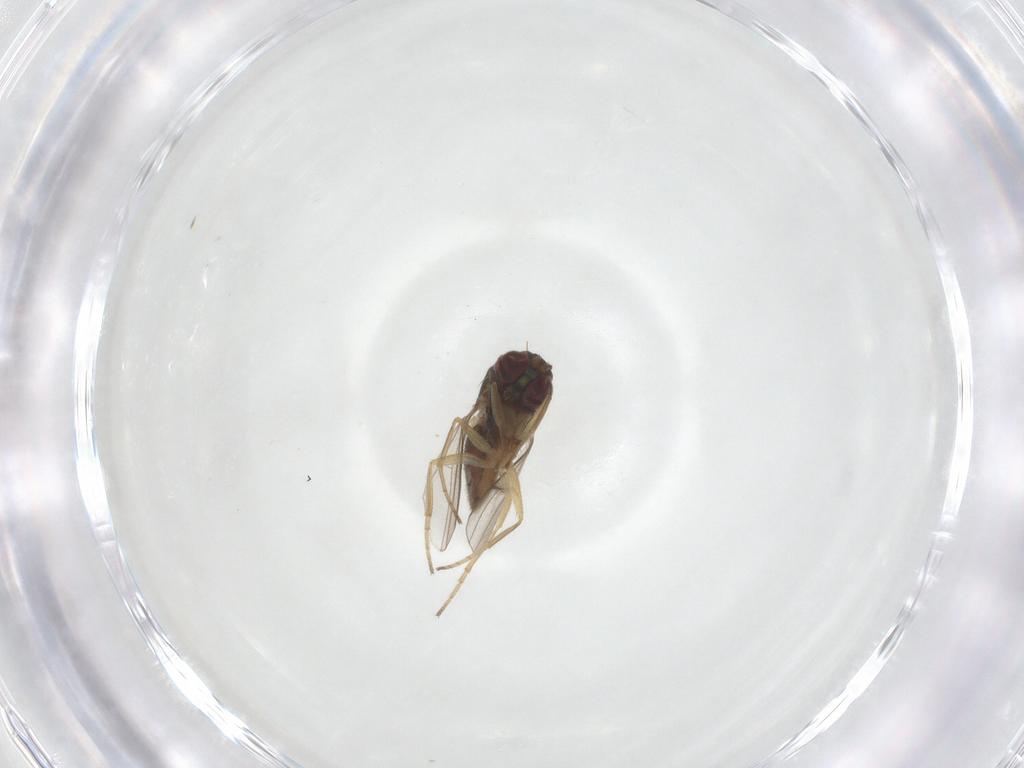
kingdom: Animalia
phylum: Arthropoda
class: Insecta
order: Diptera
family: Dolichopodidae
